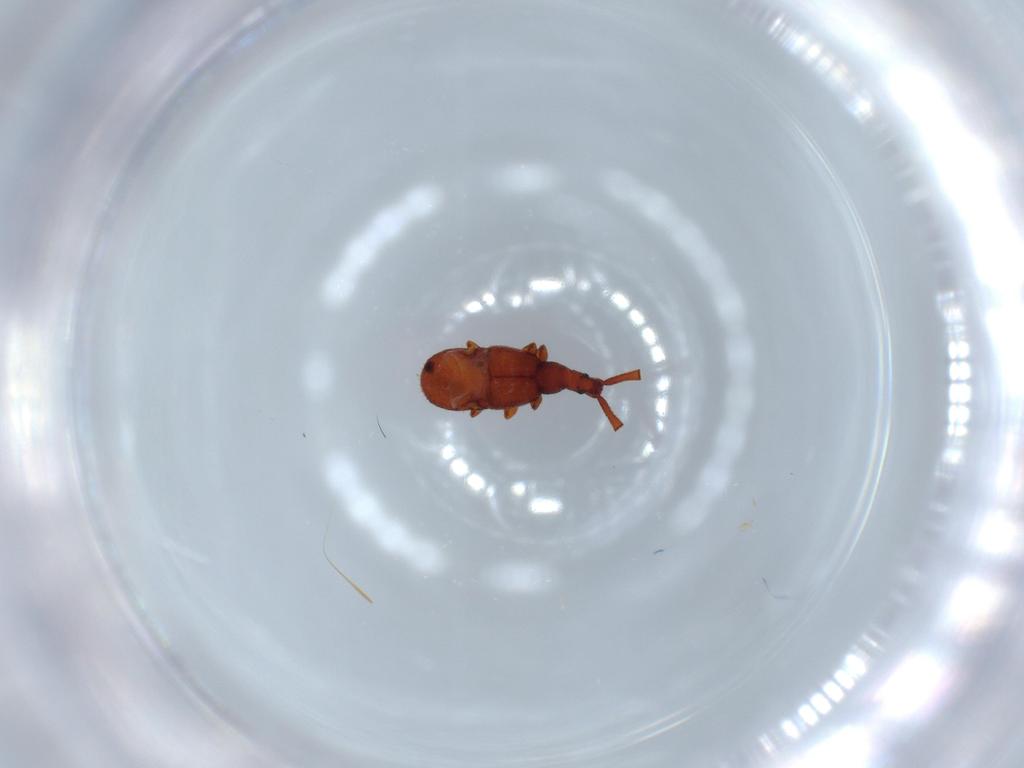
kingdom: Animalia
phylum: Arthropoda
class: Insecta
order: Coleoptera
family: Staphylinidae
